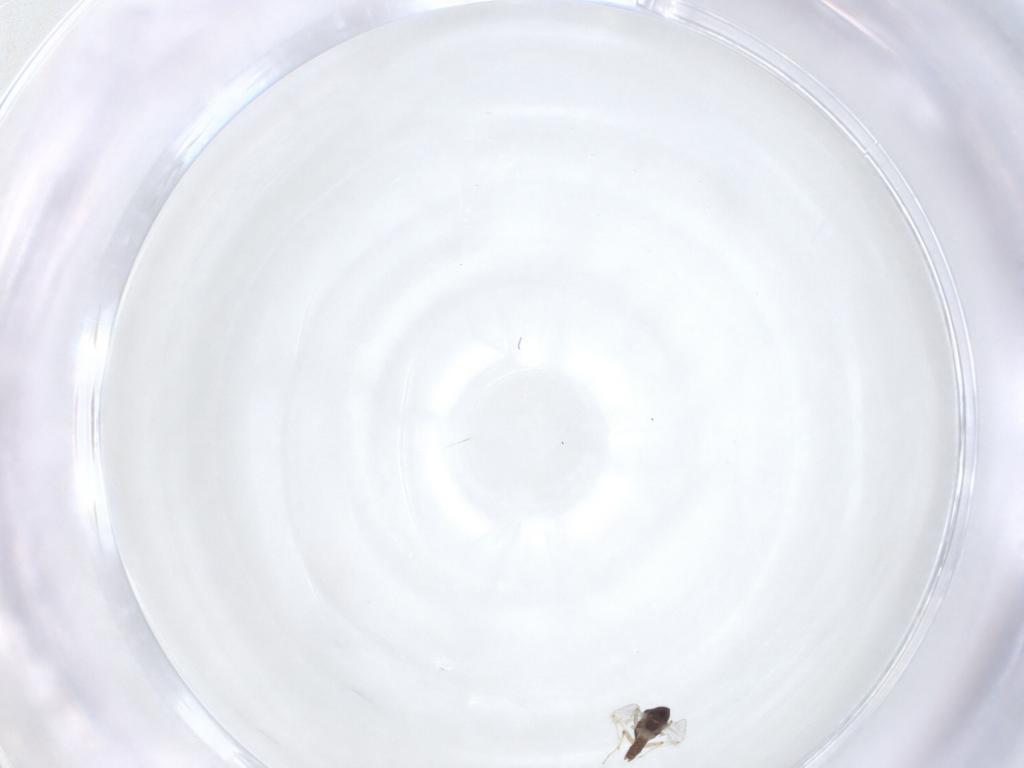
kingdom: Animalia
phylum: Arthropoda
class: Insecta
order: Diptera
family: Chironomidae
